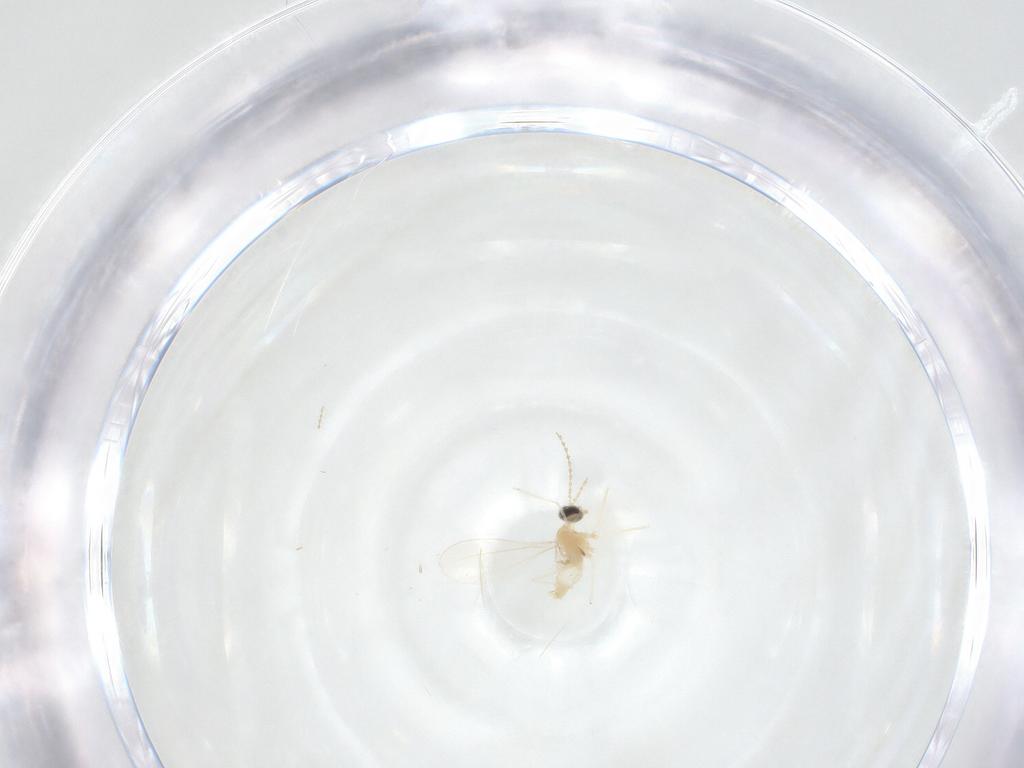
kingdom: Animalia
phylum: Arthropoda
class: Insecta
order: Diptera
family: Cecidomyiidae
